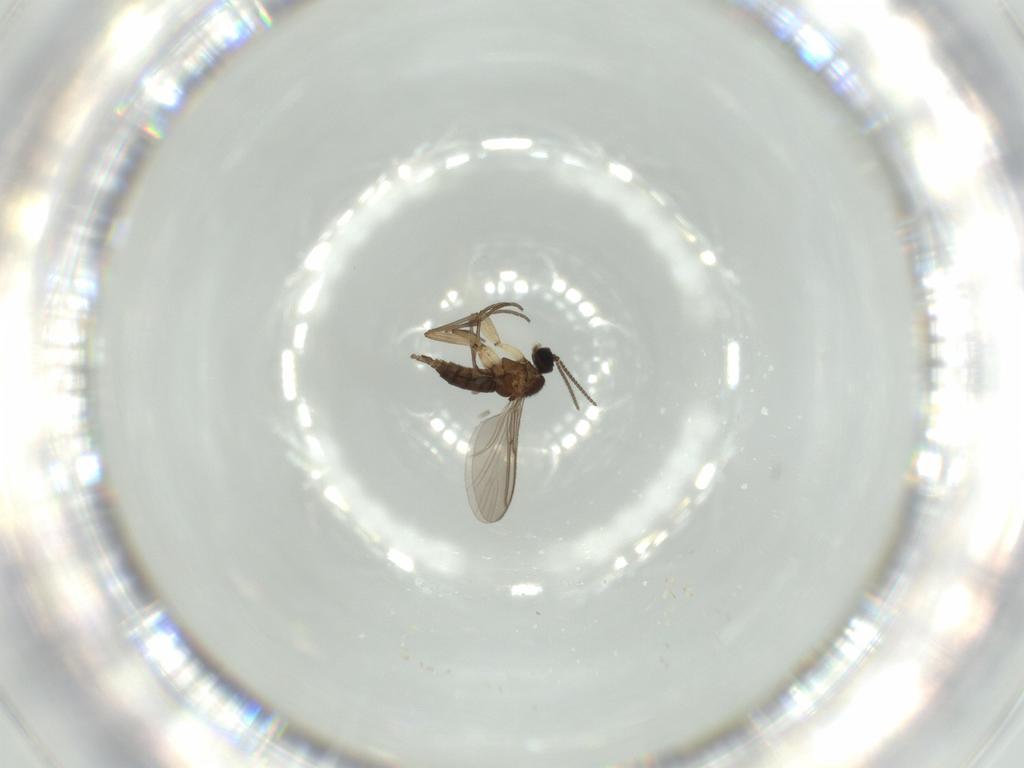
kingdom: Animalia
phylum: Arthropoda
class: Insecta
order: Diptera
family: Sciaridae
